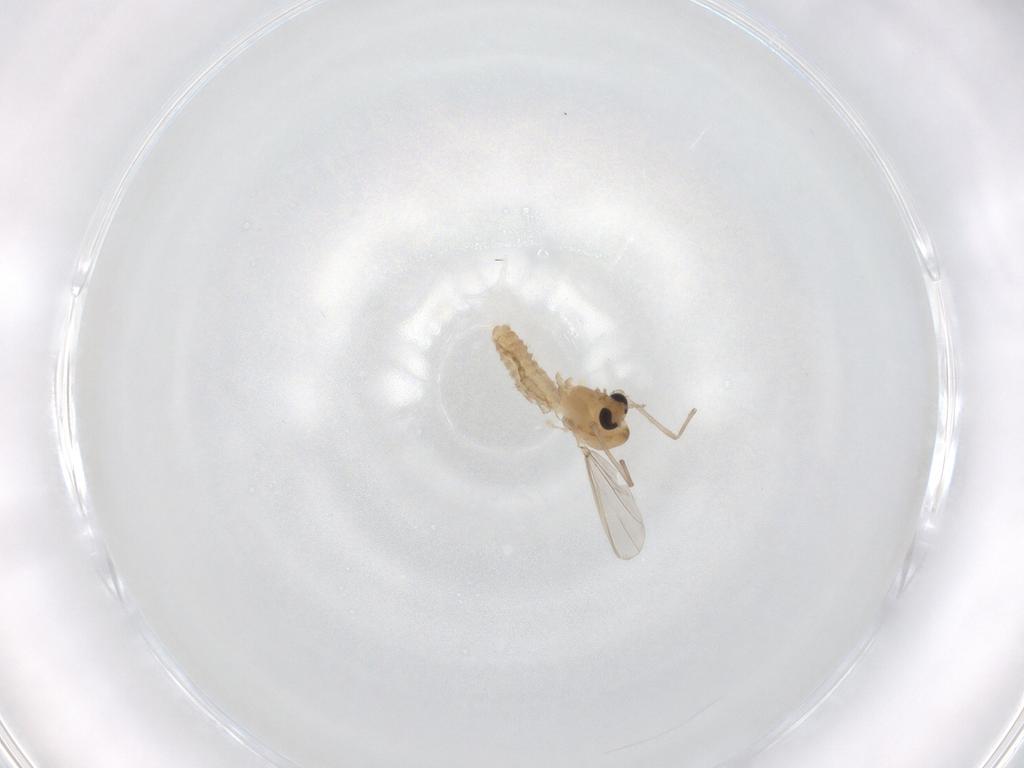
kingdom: Animalia
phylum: Arthropoda
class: Insecta
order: Diptera
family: Chironomidae
